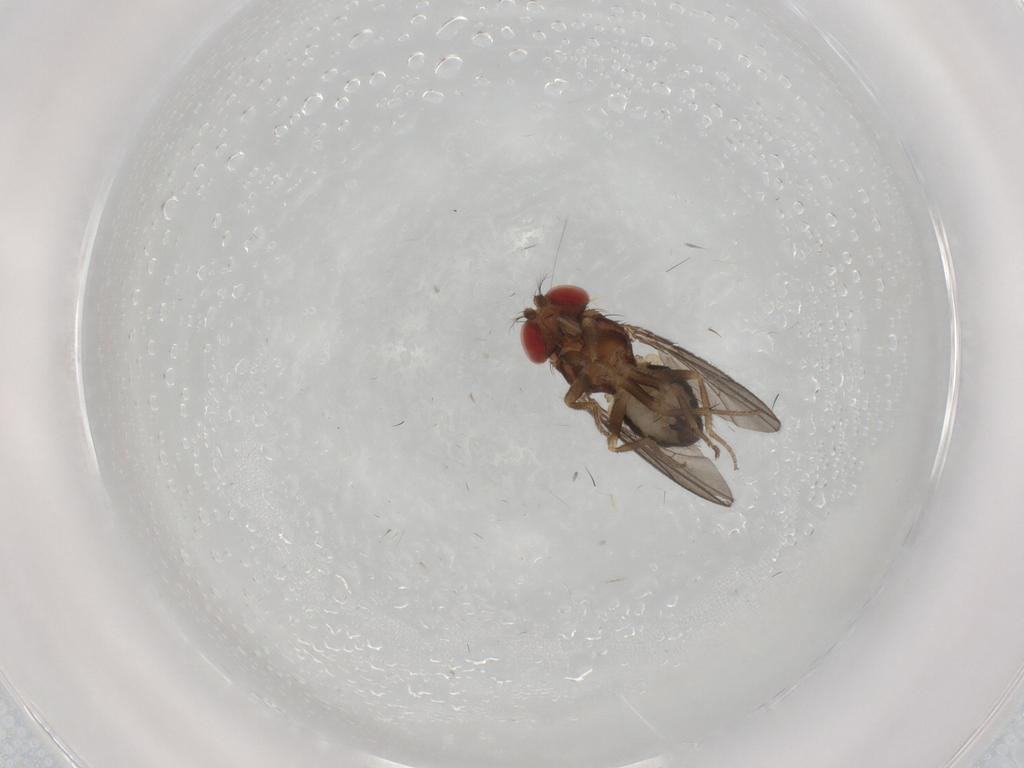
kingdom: Animalia
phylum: Arthropoda
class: Insecta
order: Diptera
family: Drosophilidae
